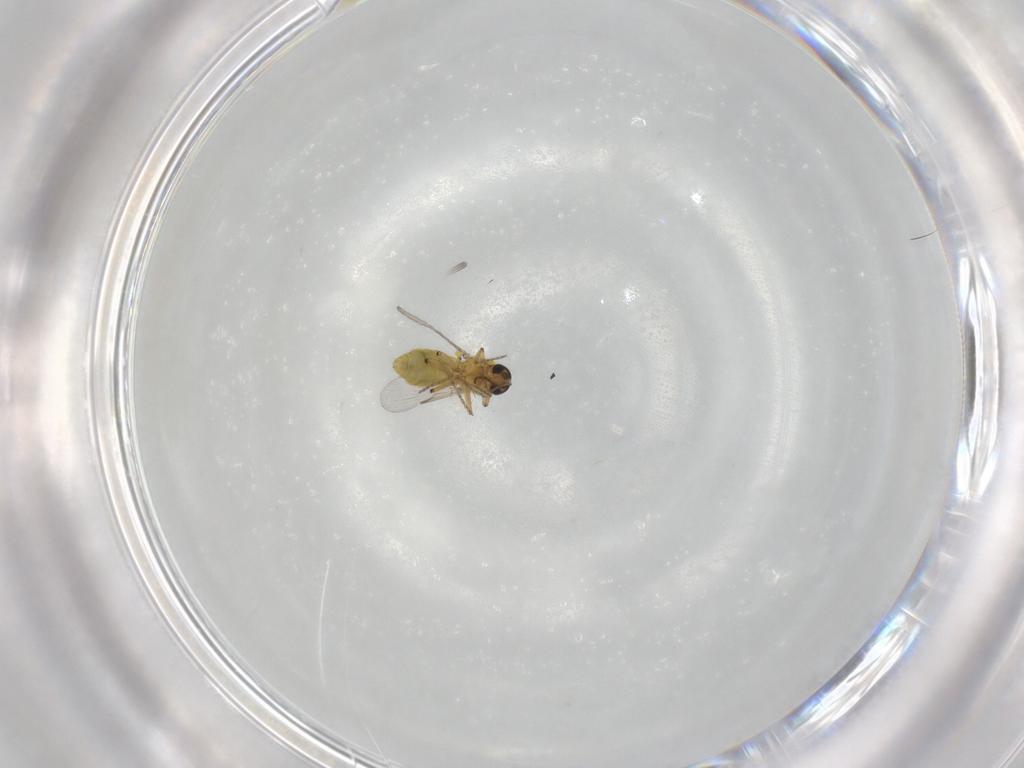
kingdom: Animalia
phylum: Arthropoda
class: Insecta
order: Diptera
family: Ceratopogonidae
